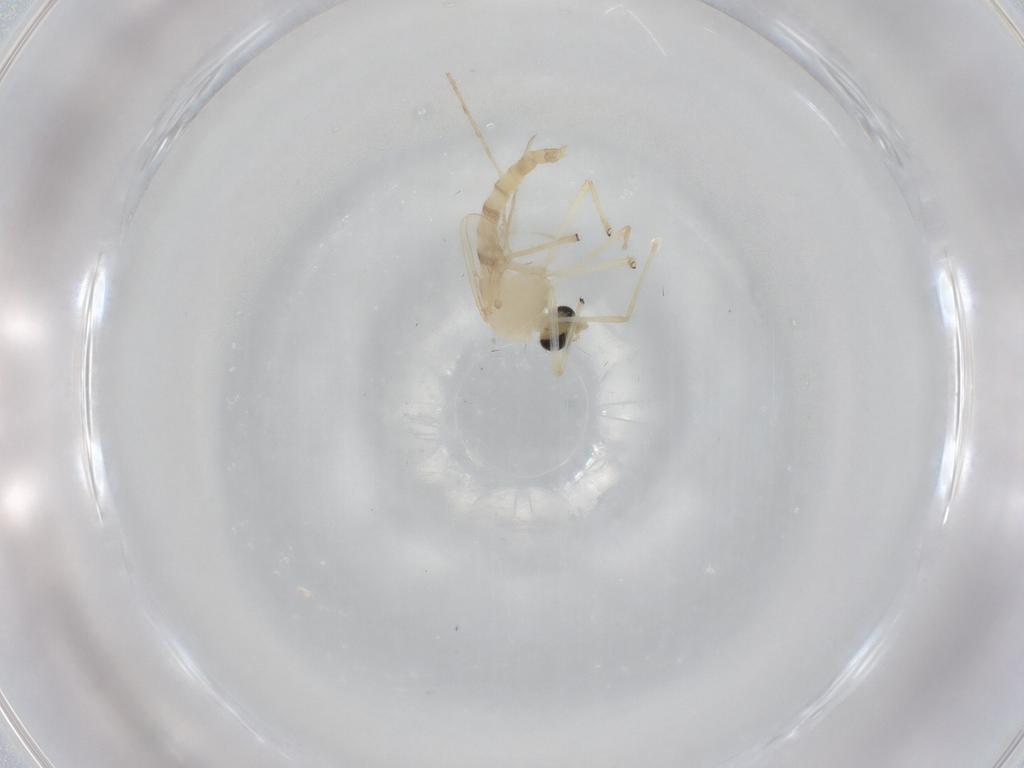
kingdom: Animalia
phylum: Arthropoda
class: Insecta
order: Diptera
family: Chironomidae
